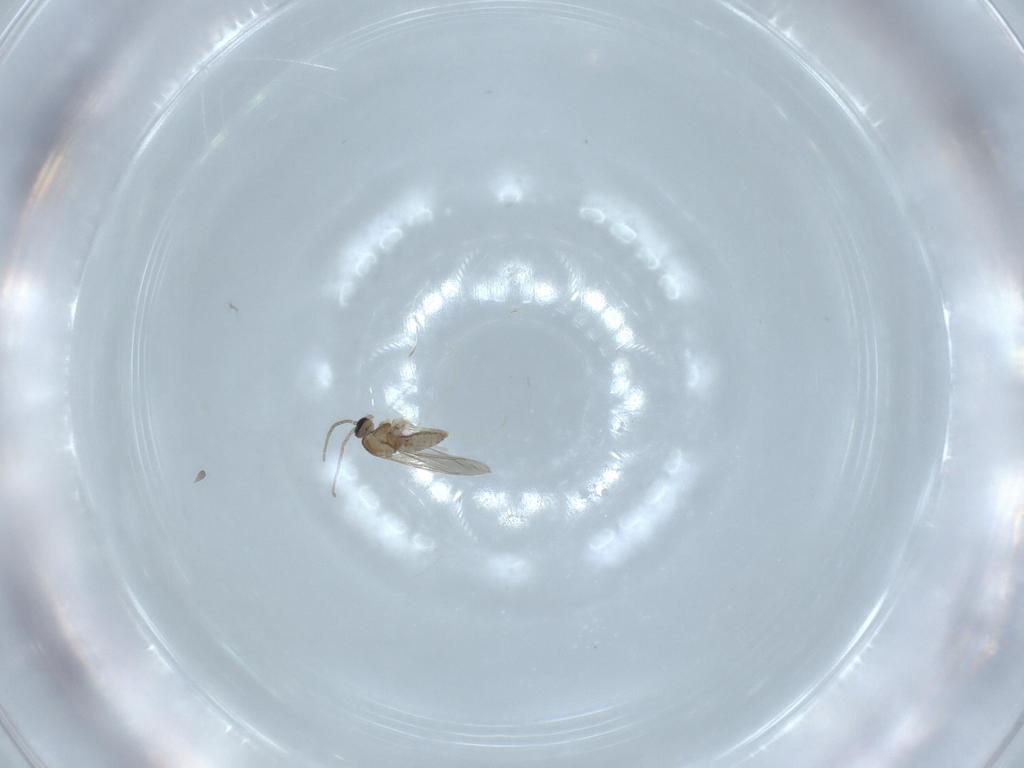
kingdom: Animalia
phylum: Arthropoda
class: Insecta
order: Diptera
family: Cecidomyiidae
